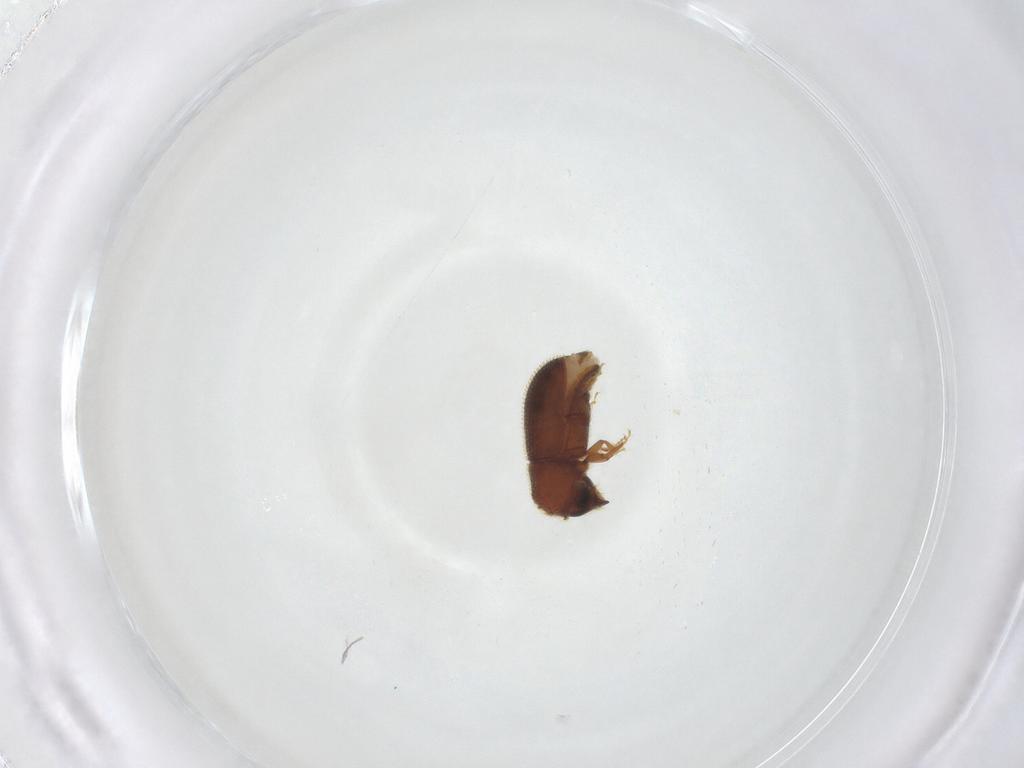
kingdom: Animalia
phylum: Arthropoda
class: Insecta
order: Coleoptera
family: Curculionidae
